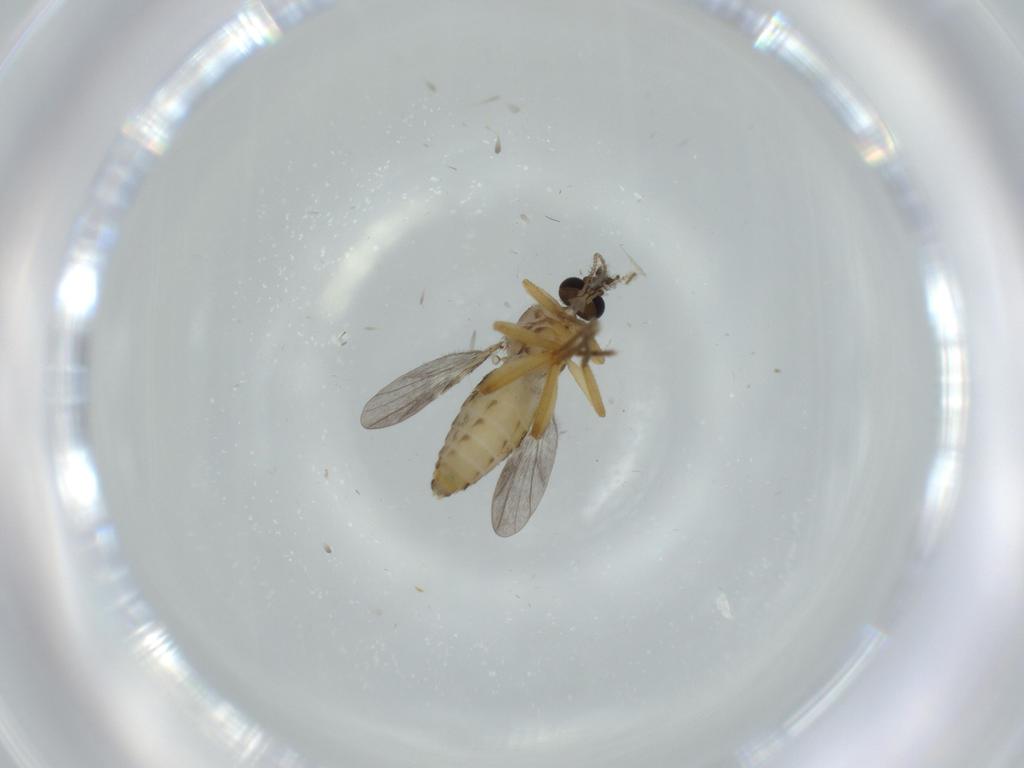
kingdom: Animalia
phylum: Arthropoda
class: Insecta
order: Diptera
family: Ceratopogonidae
